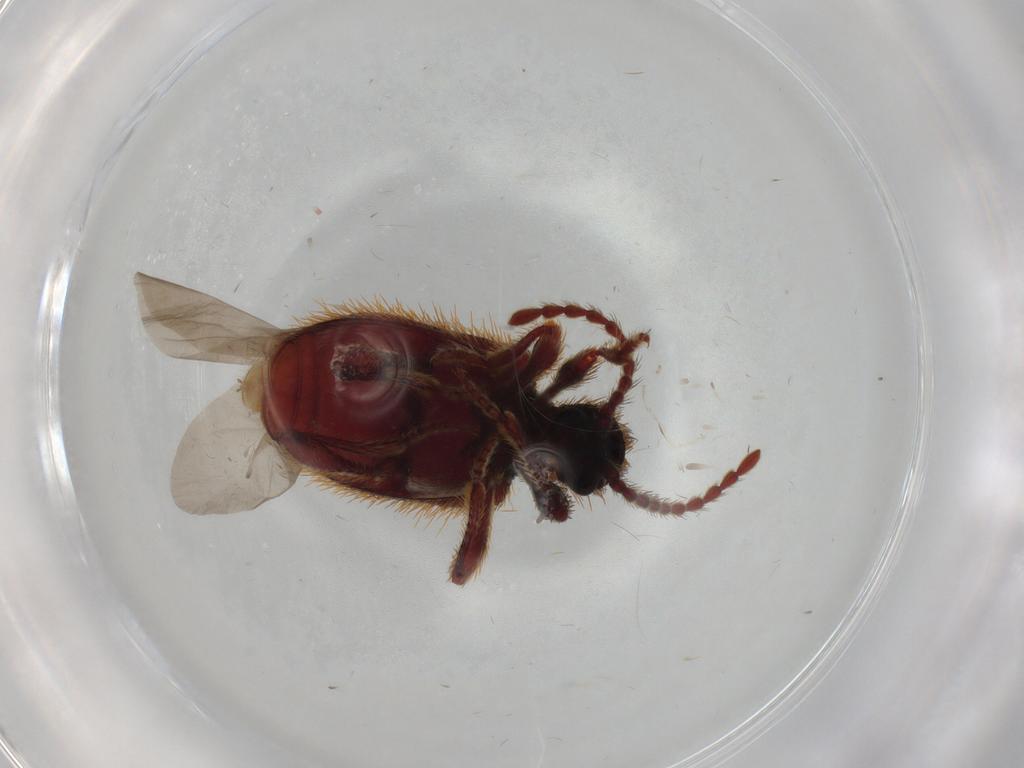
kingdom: Animalia
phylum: Arthropoda
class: Insecta
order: Coleoptera
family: Ptinidae
